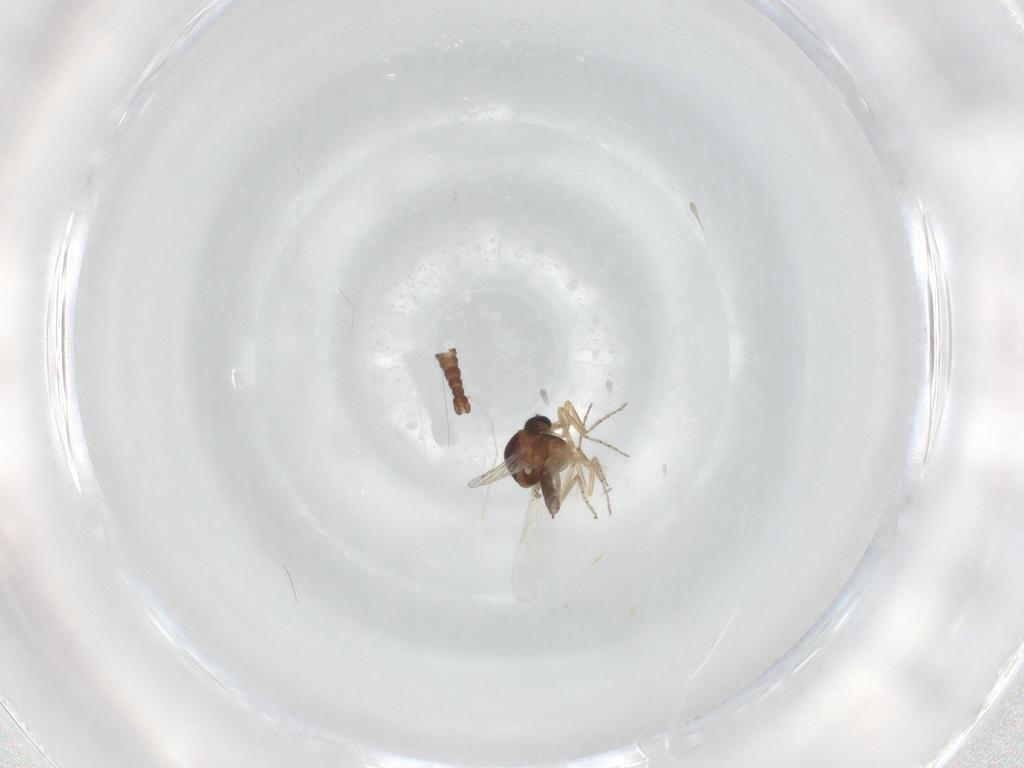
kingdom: Animalia
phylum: Arthropoda
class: Insecta
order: Diptera
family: Ceratopogonidae
